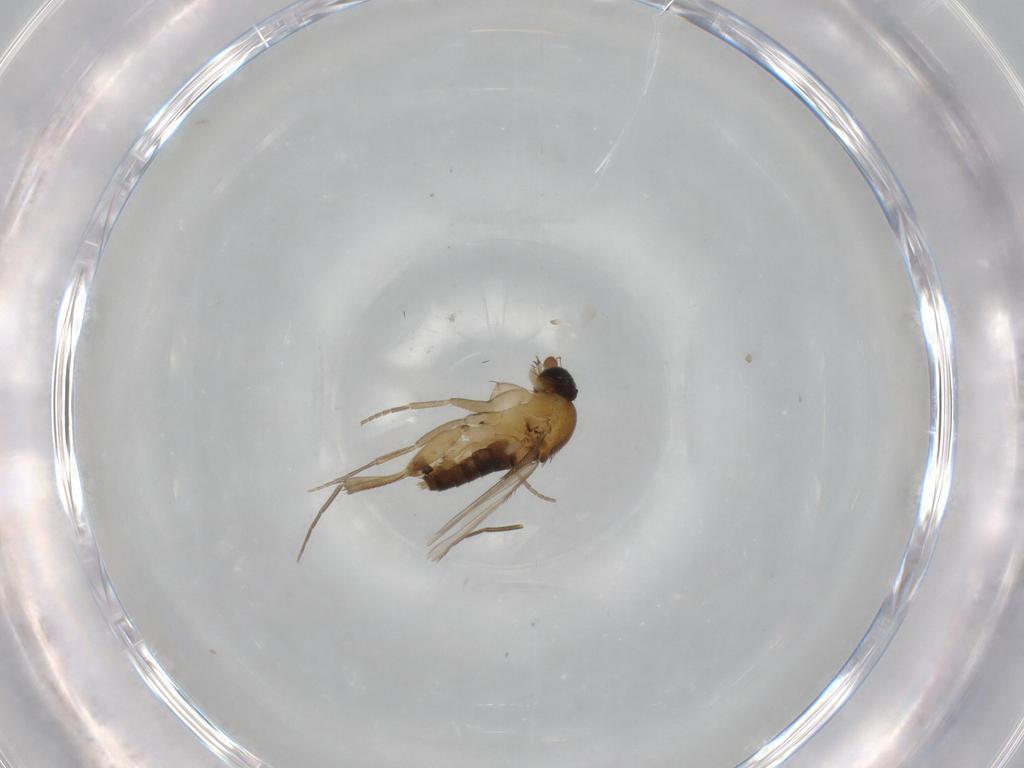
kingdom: Animalia
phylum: Arthropoda
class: Insecta
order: Diptera
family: Phoridae
